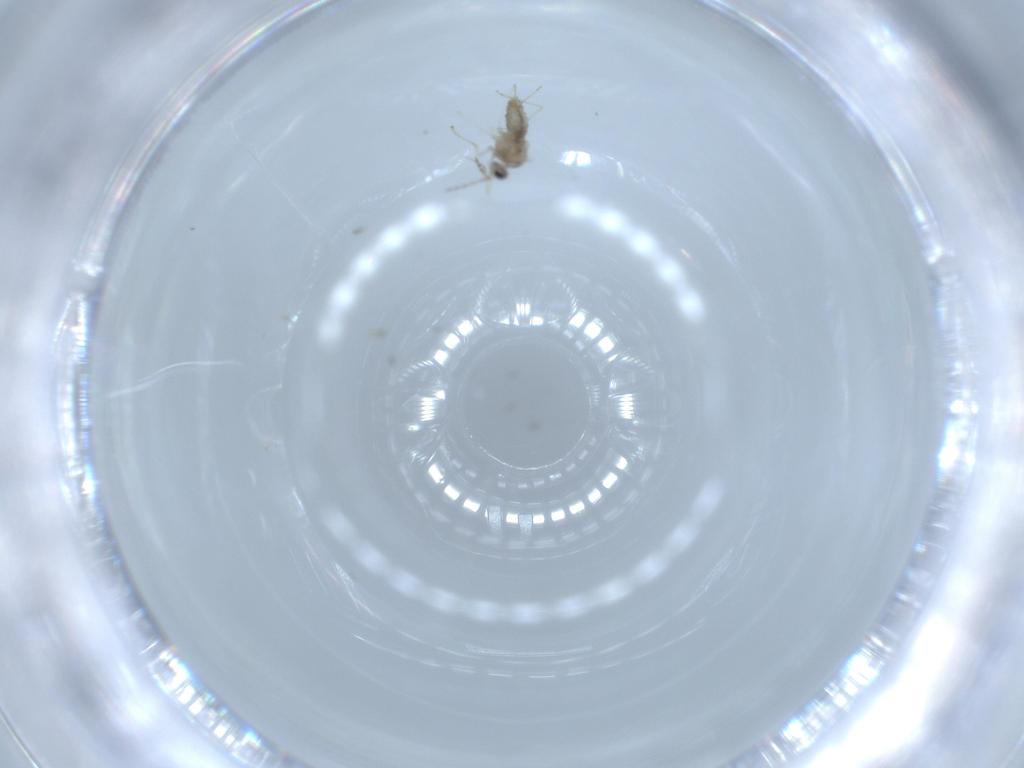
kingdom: Animalia
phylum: Arthropoda
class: Insecta
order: Diptera
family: Cecidomyiidae
